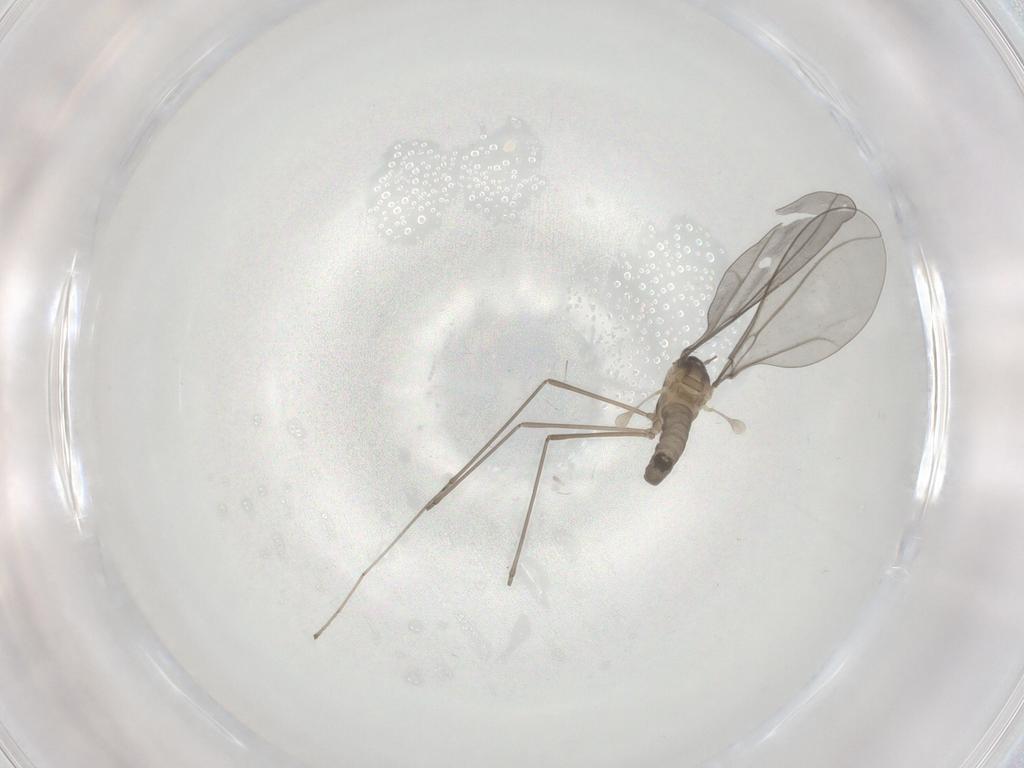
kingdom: Animalia
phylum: Arthropoda
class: Insecta
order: Diptera
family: Cecidomyiidae
